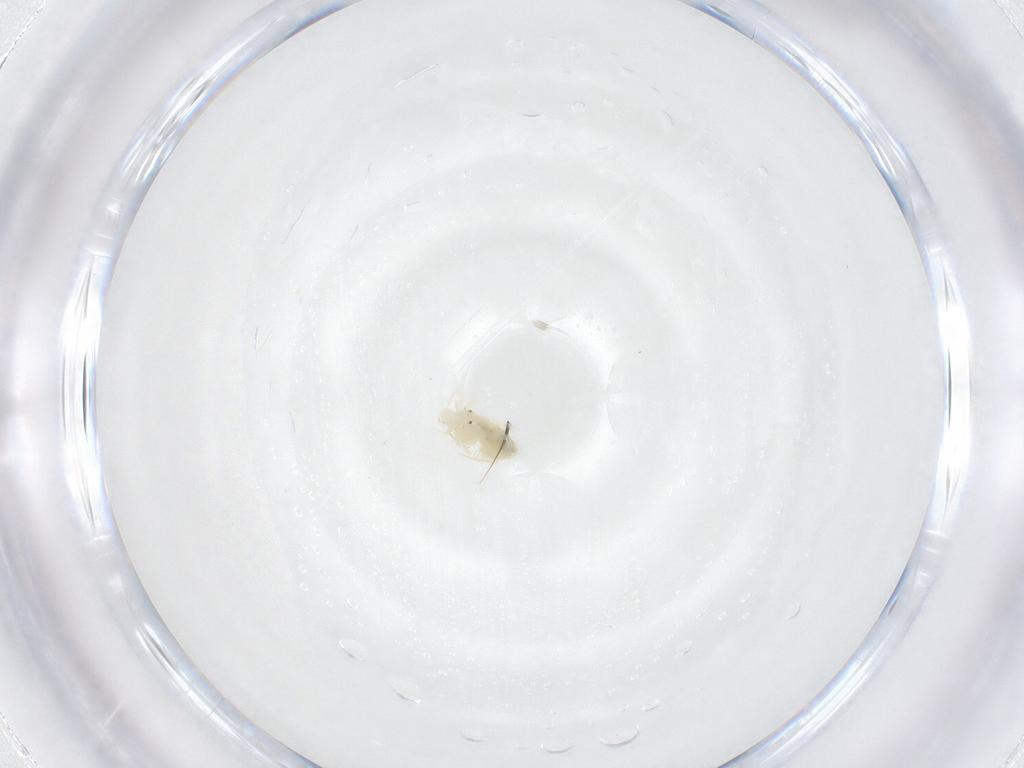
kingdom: Animalia
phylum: Arthropoda
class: Arachnida
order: Trombidiformes
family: Anystidae
